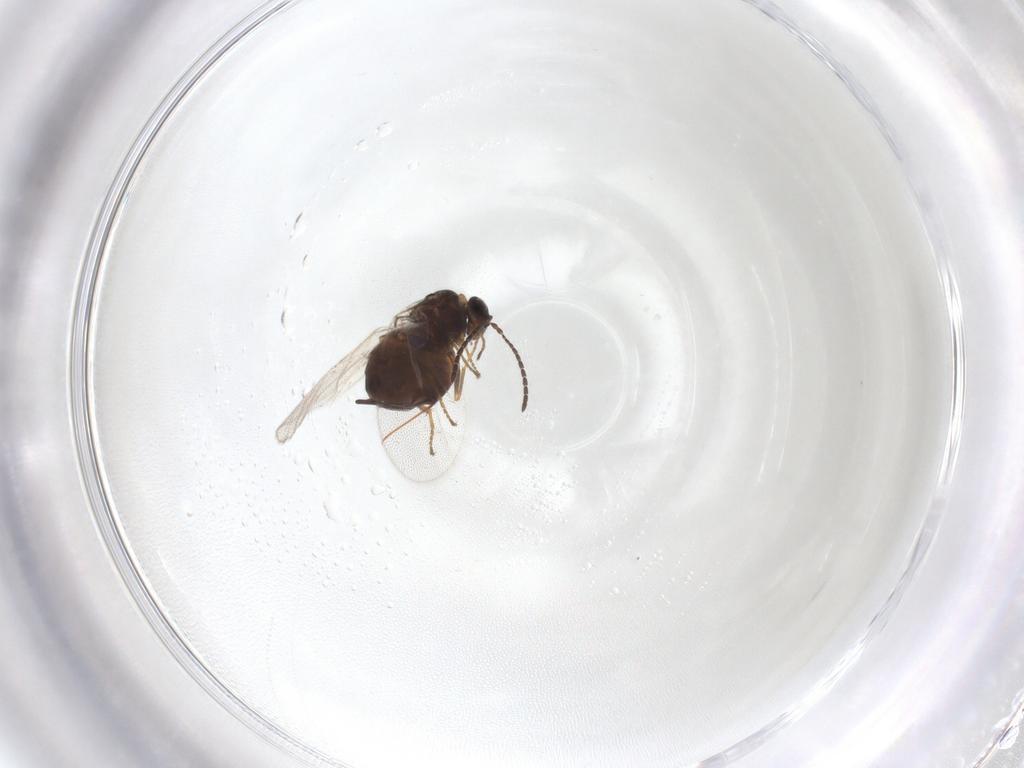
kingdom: Animalia
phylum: Arthropoda
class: Insecta
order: Hymenoptera
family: Cynipidae
